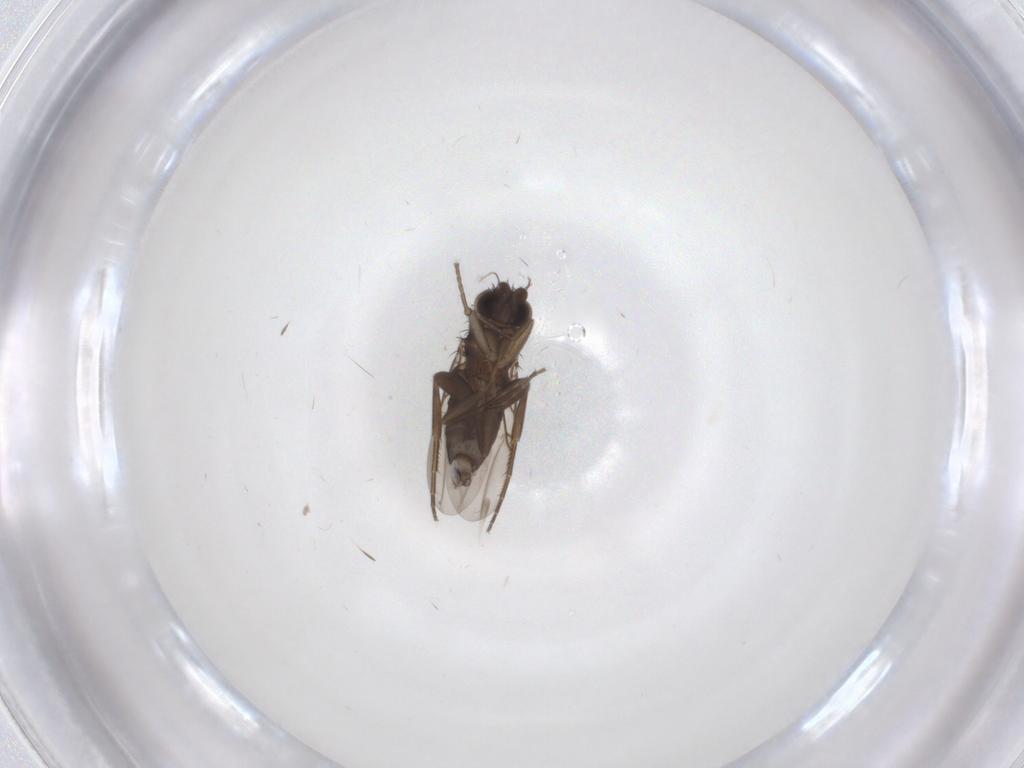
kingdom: Animalia
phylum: Arthropoda
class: Insecta
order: Diptera
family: Phoridae
